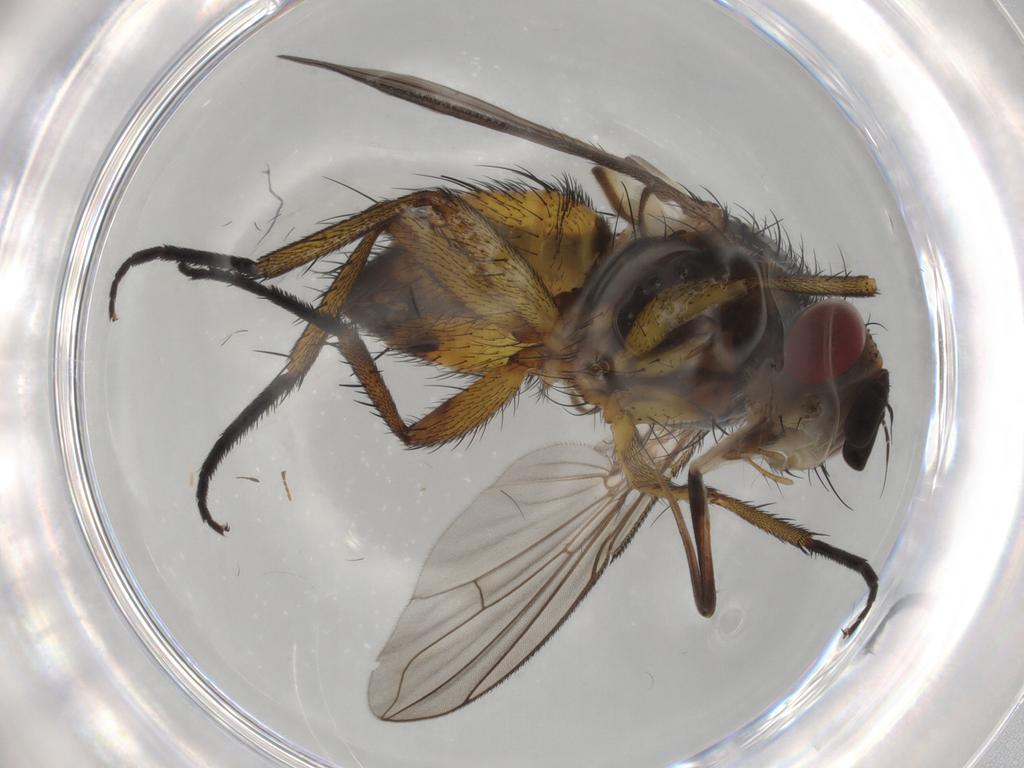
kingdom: Animalia
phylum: Arthropoda
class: Insecta
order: Diptera
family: Tachinidae
